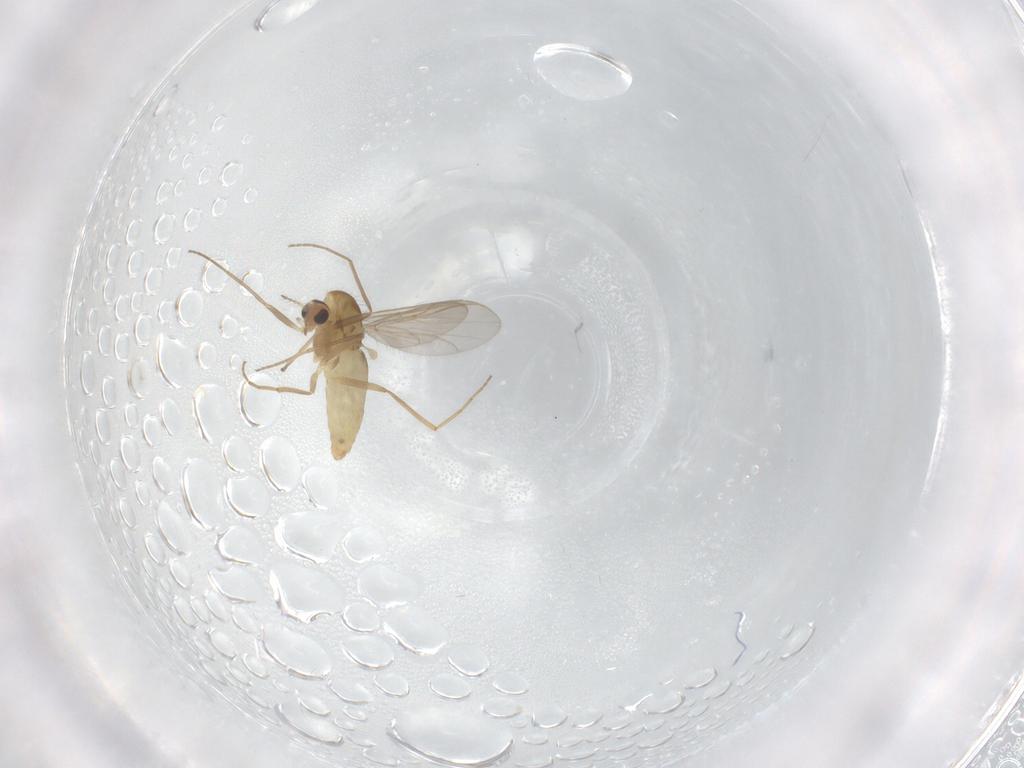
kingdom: Animalia
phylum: Arthropoda
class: Insecta
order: Diptera
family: Chironomidae
